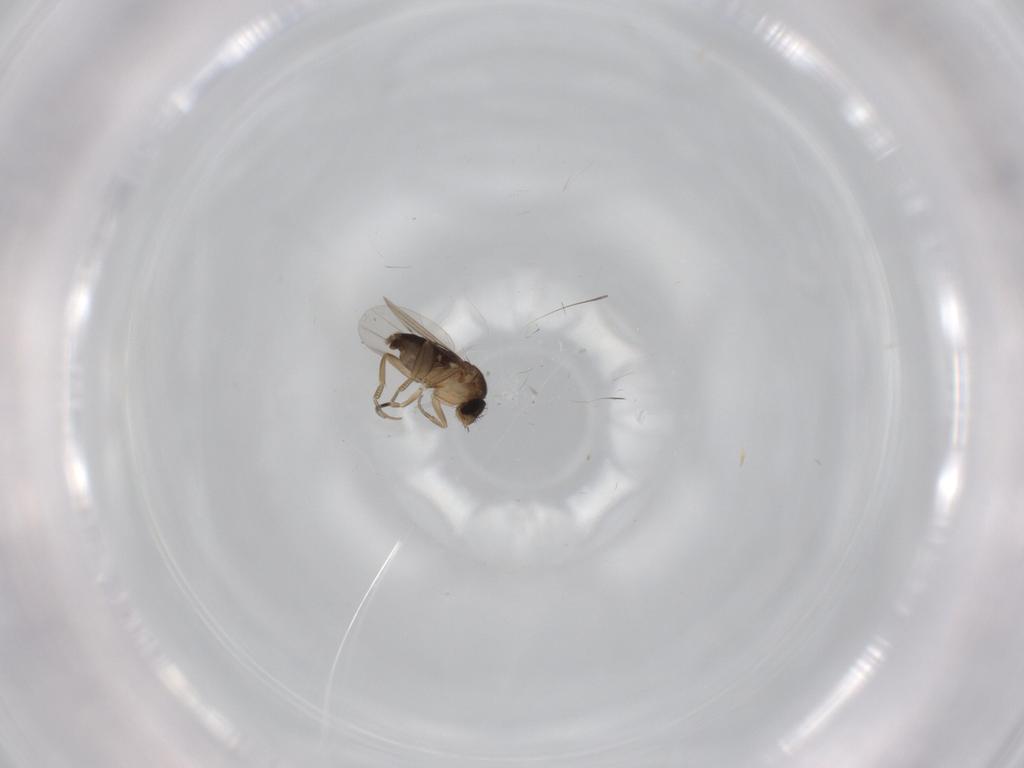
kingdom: Animalia
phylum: Arthropoda
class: Insecta
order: Diptera
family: Phoridae
